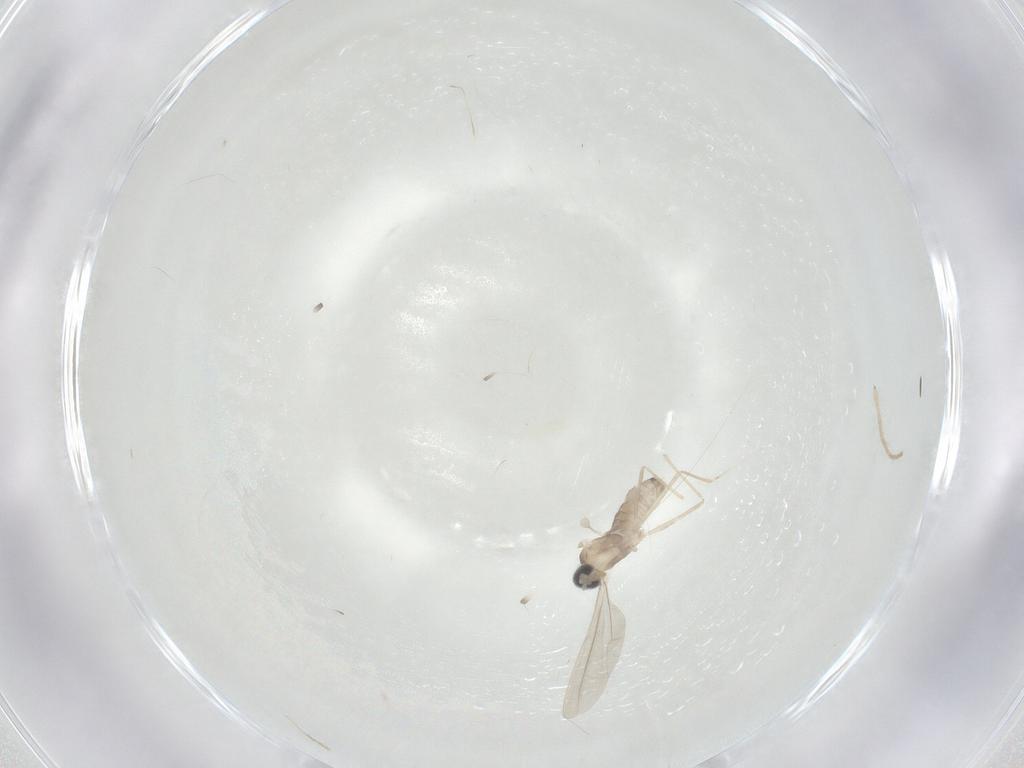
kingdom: Animalia
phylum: Arthropoda
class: Insecta
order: Diptera
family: Cecidomyiidae
